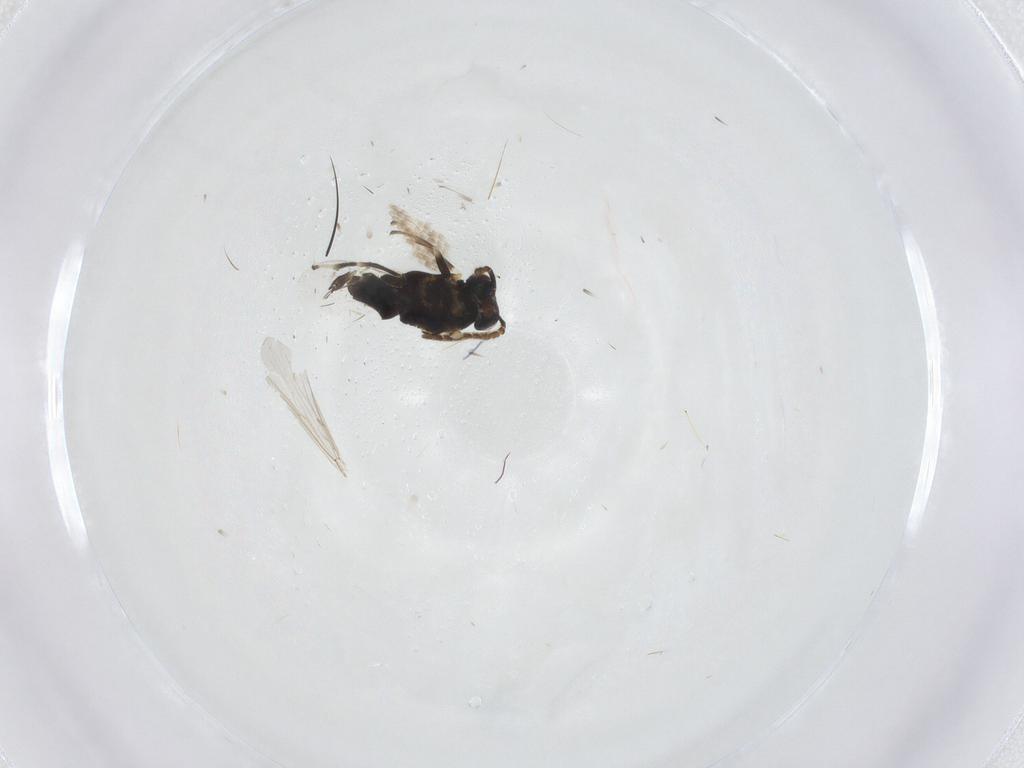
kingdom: Animalia
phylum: Arthropoda
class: Insecta
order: Hymenoptera
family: Encyrtidae
